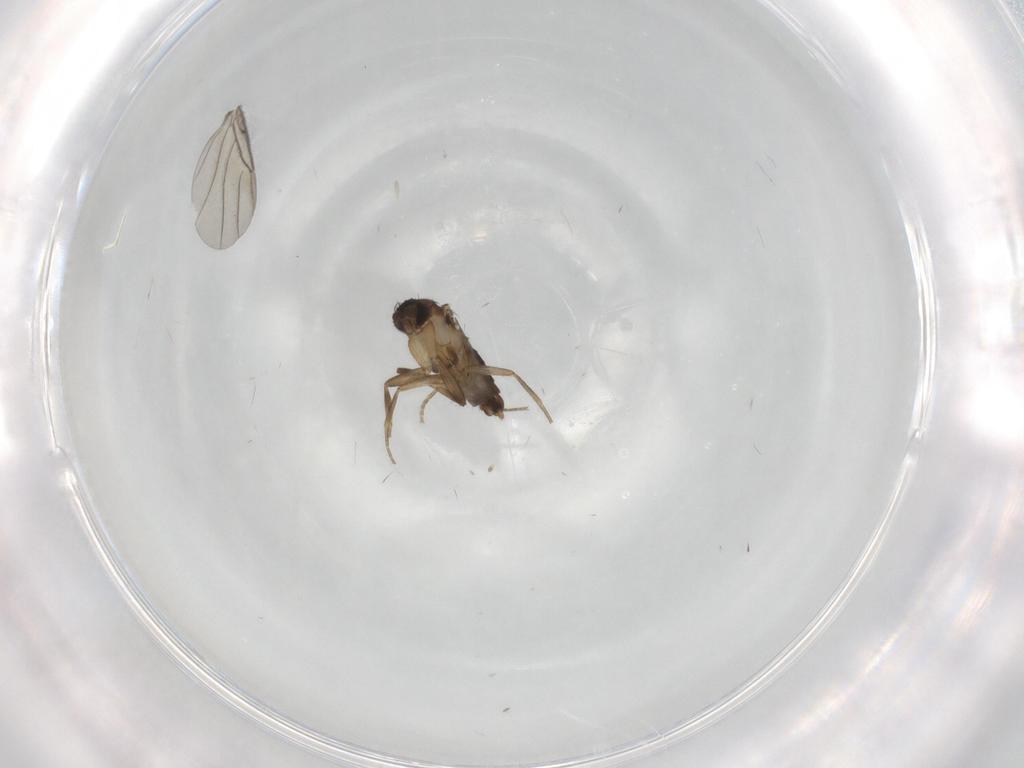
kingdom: Animalia
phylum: Arthropoda
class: Insecta
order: Diptera
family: Phoridae
